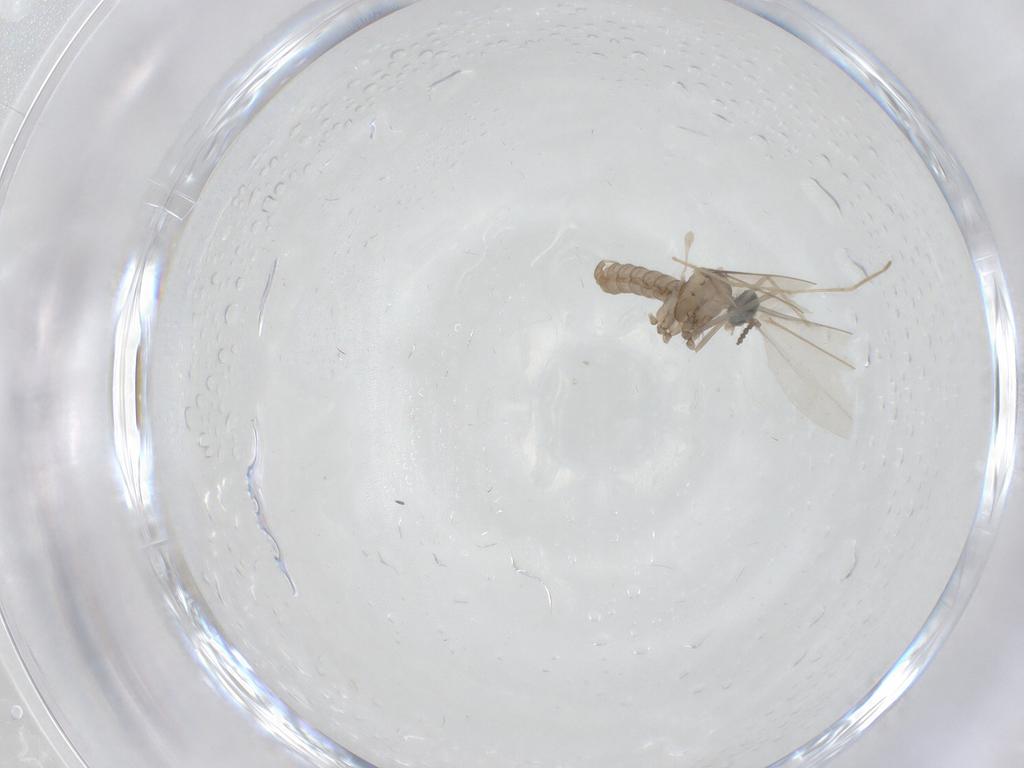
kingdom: Animalia
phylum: Arthropoda
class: Insecta
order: Diptera
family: Cecidomyiidae
